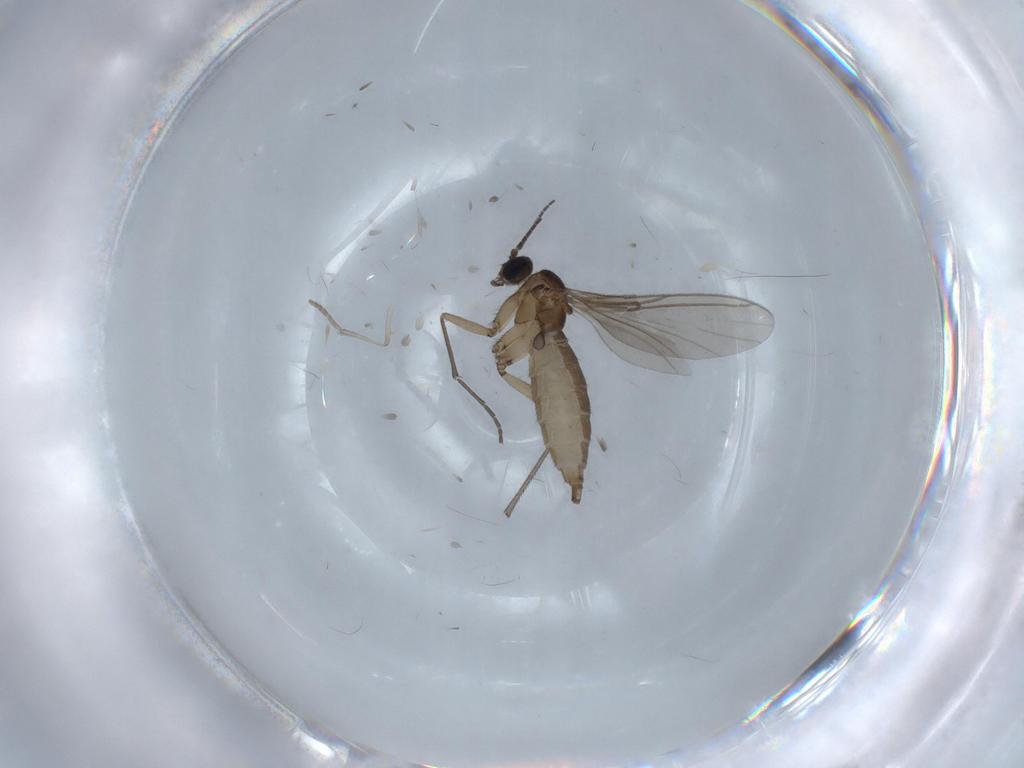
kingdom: Animalia
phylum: Arthropoda
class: Insecta
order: Diptera
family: Sciaridae
